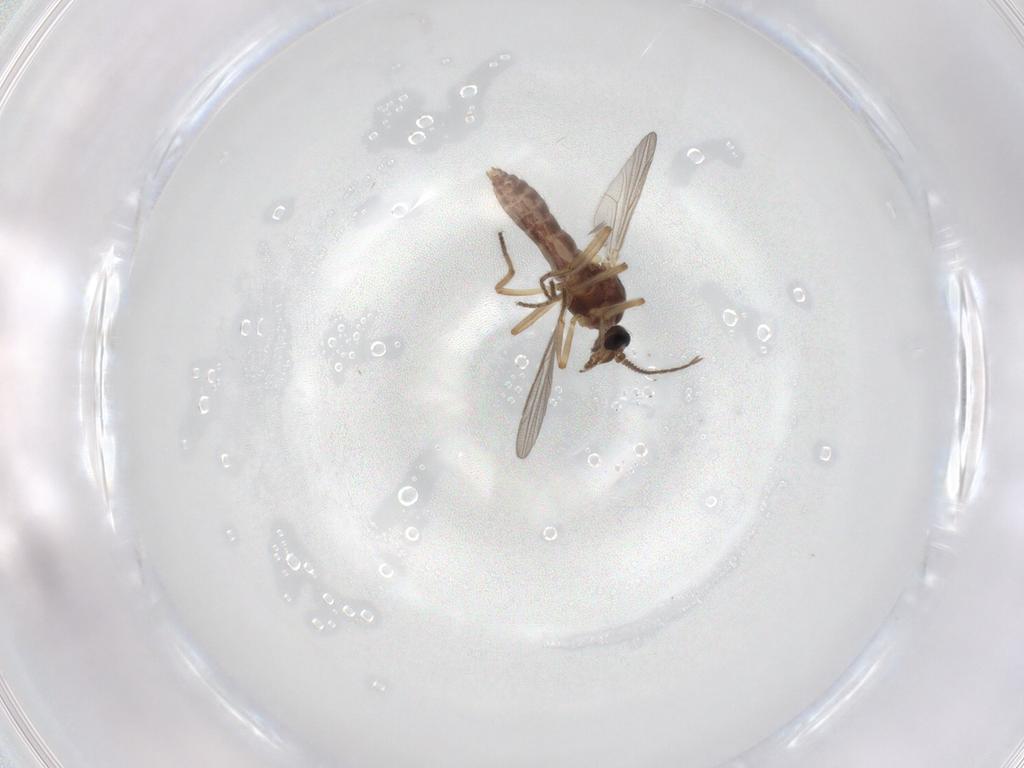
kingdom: Animalia
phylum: Arthropoda
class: Insecta
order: Diptera
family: Ceratopogonidae
